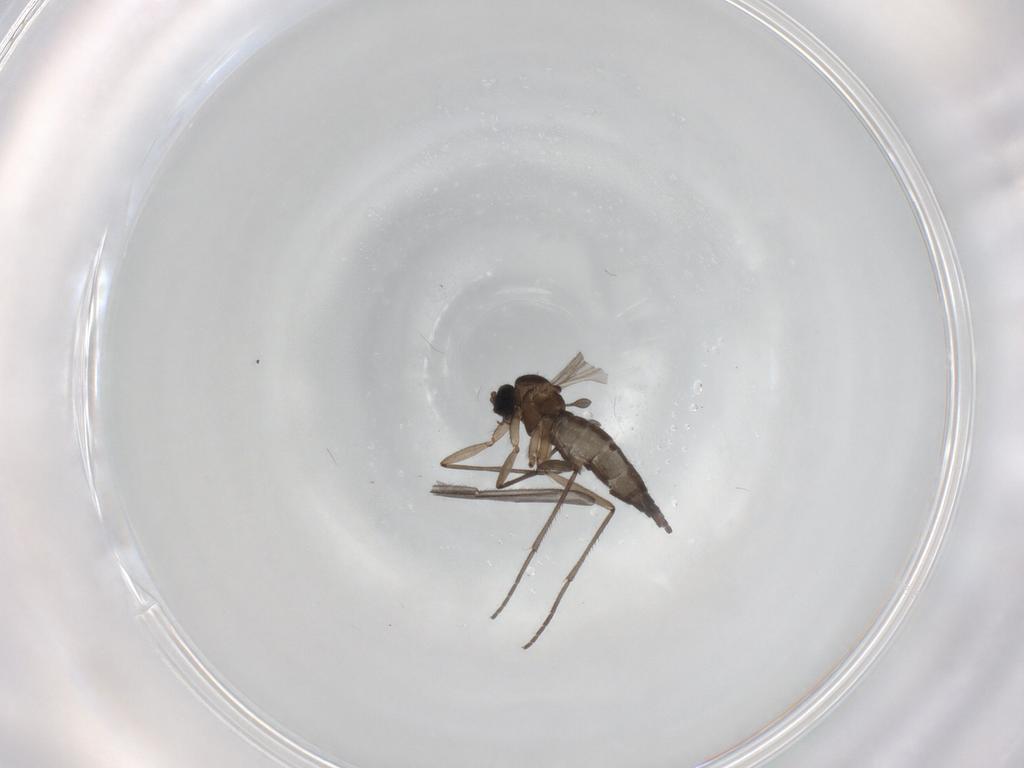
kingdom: Animalia
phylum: Arthropoda
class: Insecta
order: Diptera
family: Sciaridae
